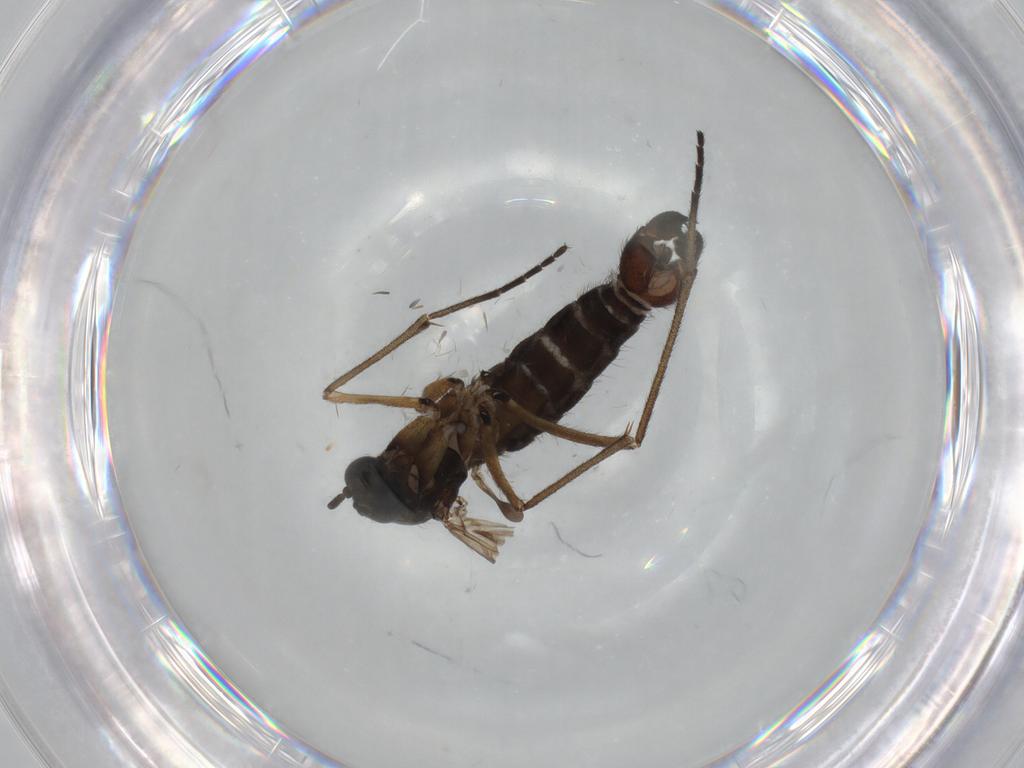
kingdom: Animalia
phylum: Arthropoda
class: Insecta
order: Diptera
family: Sciaridae
